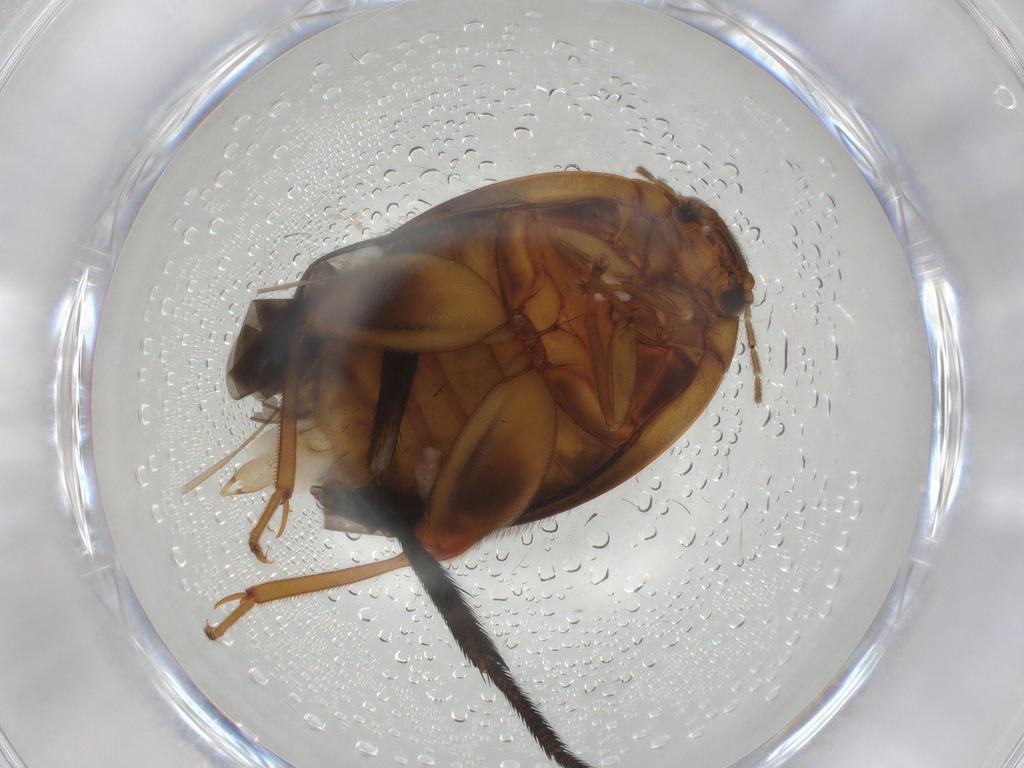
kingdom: Animalia
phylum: Arthropoda
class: Insecta
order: Coleoptera
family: Scirtidae
